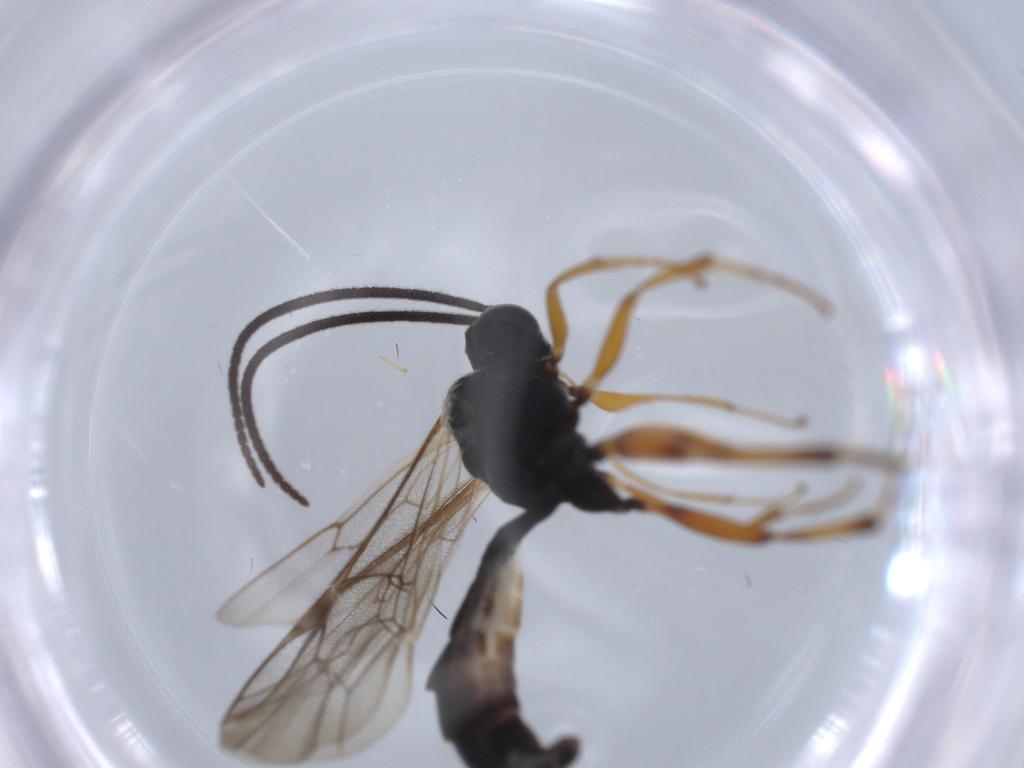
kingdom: Animalia
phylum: Arthropoda
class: Insecta
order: Hymenoptera
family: Ichneumonidae
